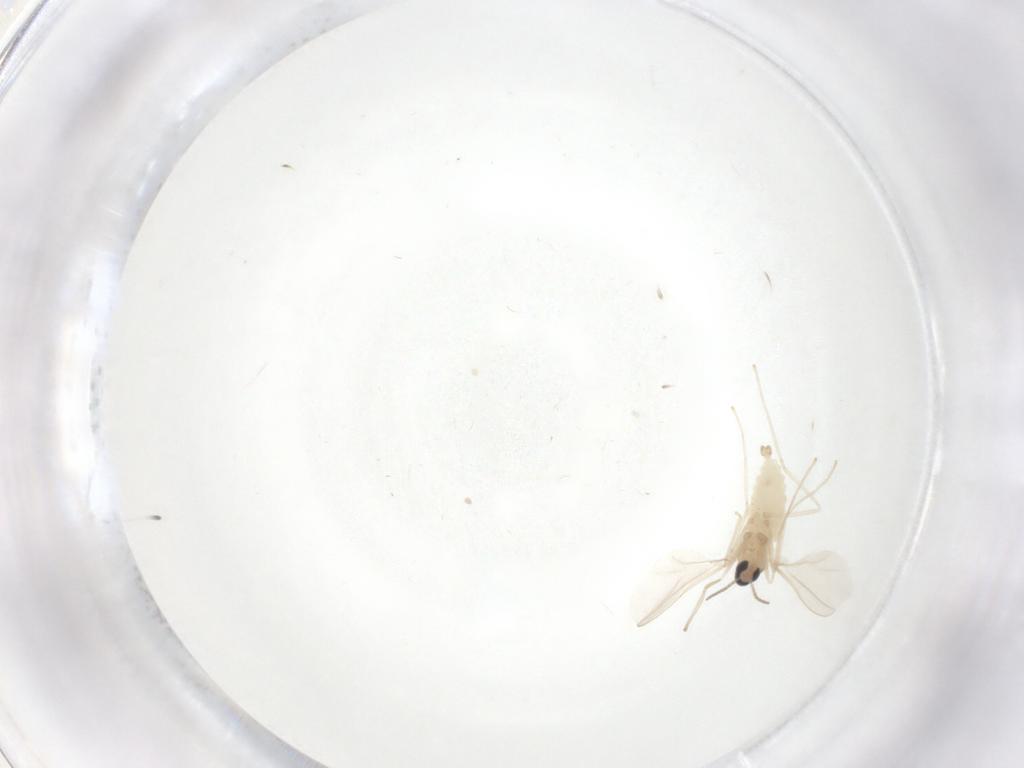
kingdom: Animalia
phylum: Arthropoda
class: Insecta
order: Diptera
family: Cecidomyiidae
